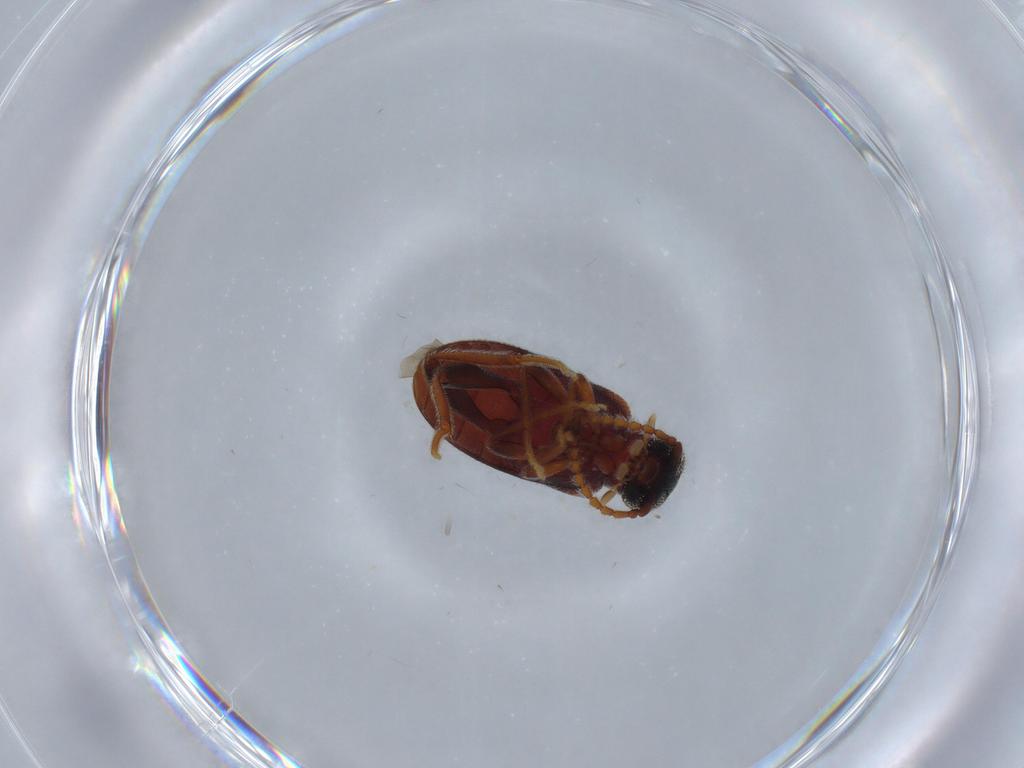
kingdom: Animalia
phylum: Arthropoda
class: Insecta
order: Coleoptera
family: Aderidae
